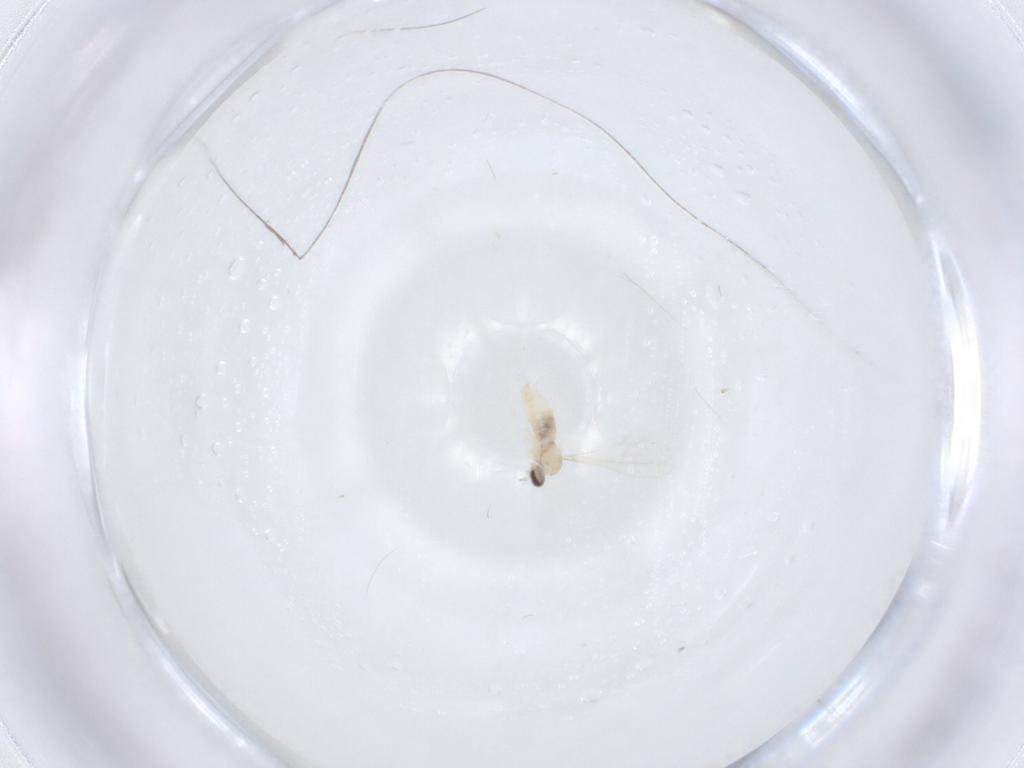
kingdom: Animalia
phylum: Arthropoda
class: Insecta
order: Diptera
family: Cecidomyiidae
